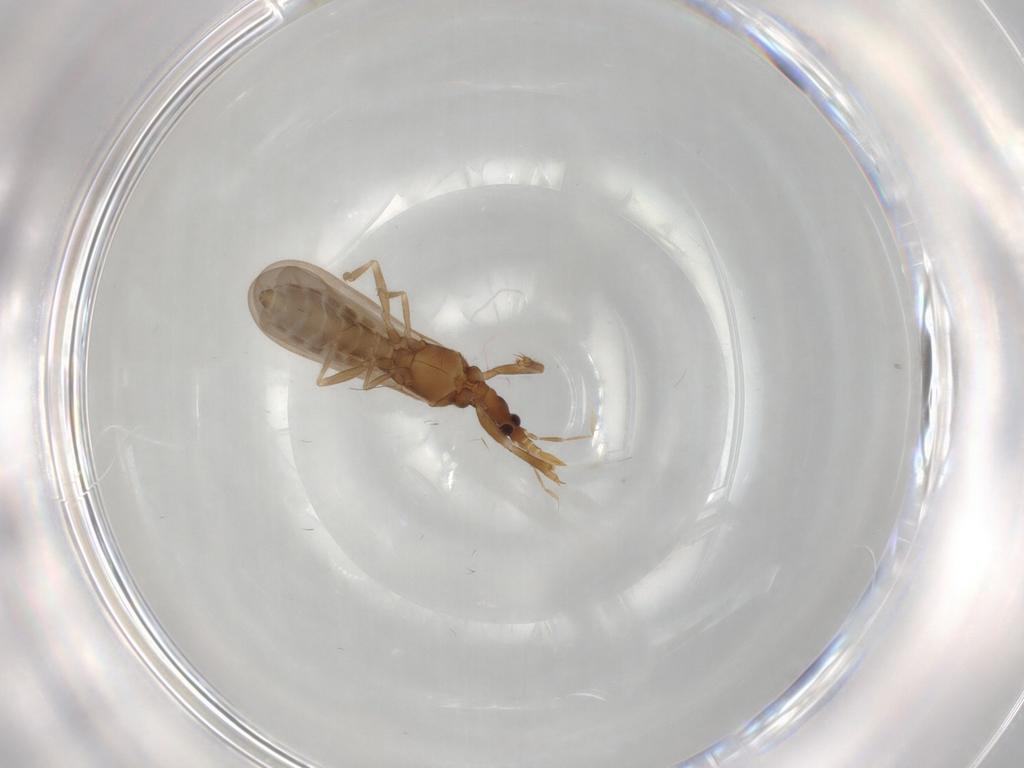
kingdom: Animalia
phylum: Arthropoda
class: Insecta
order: Hemiptera
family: Enicocephalidae
